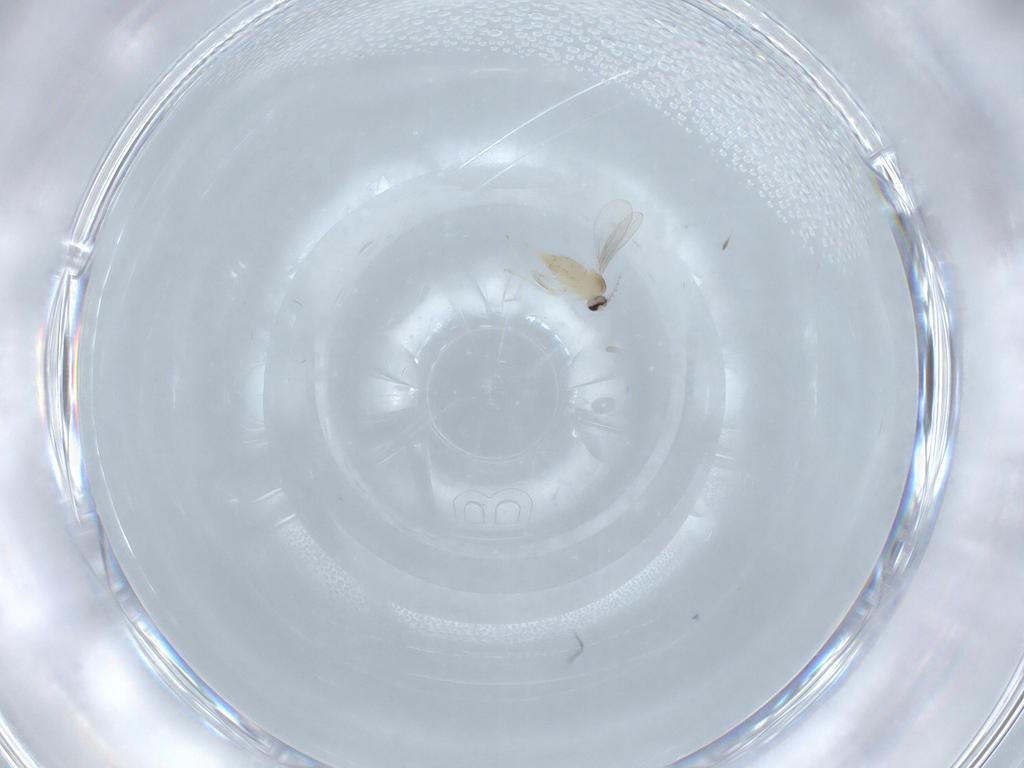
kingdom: Animalia
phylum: Arthropoda
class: Insecta
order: Diptera
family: Cecidomyiidae
